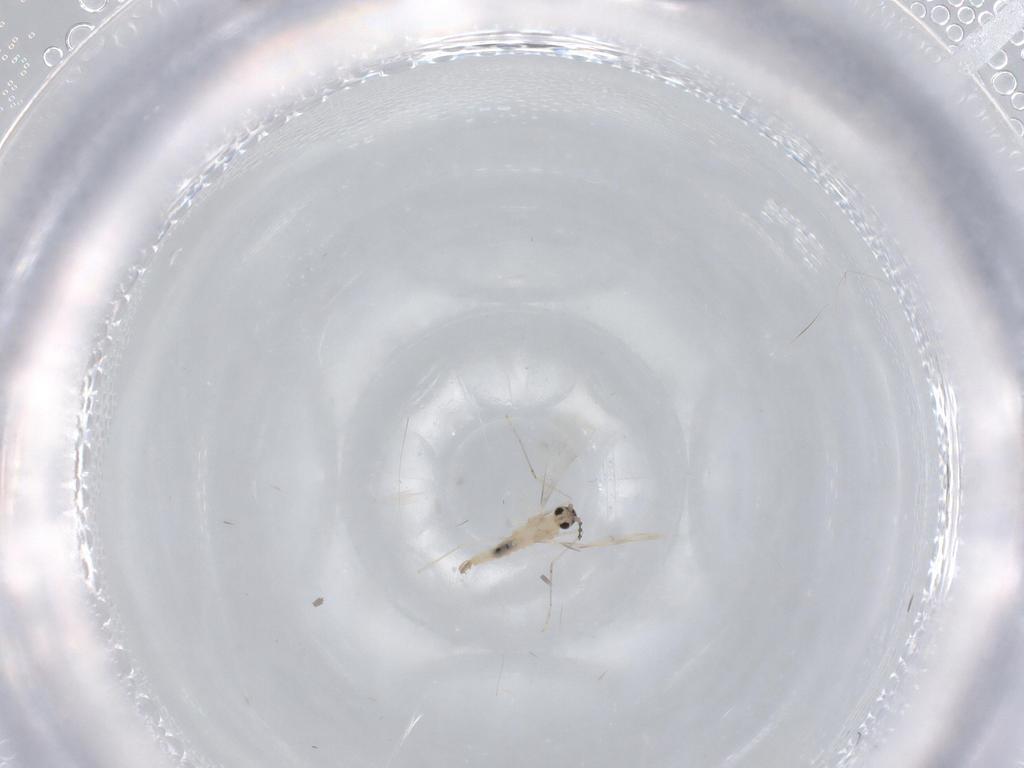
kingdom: Animalia
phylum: Arthropoda
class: Insecta
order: Diptera
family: Cecidomyiidae
